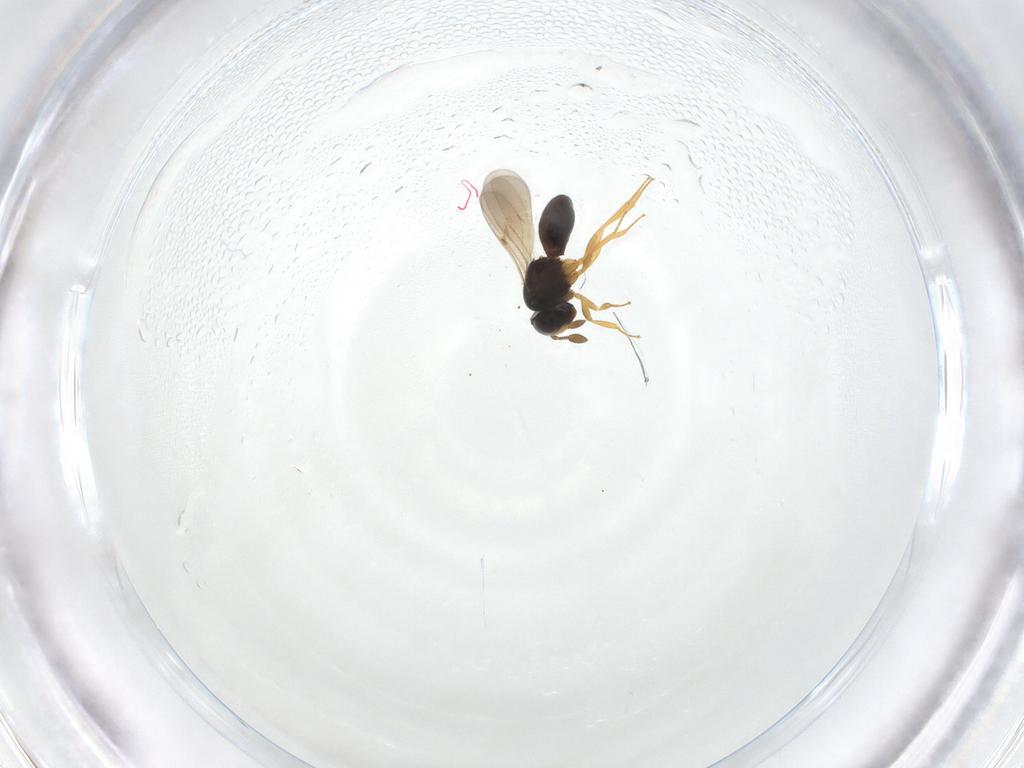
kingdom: Animalia
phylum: Arthropoda
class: Insecta
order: Hymenoptera
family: Scelionidae
